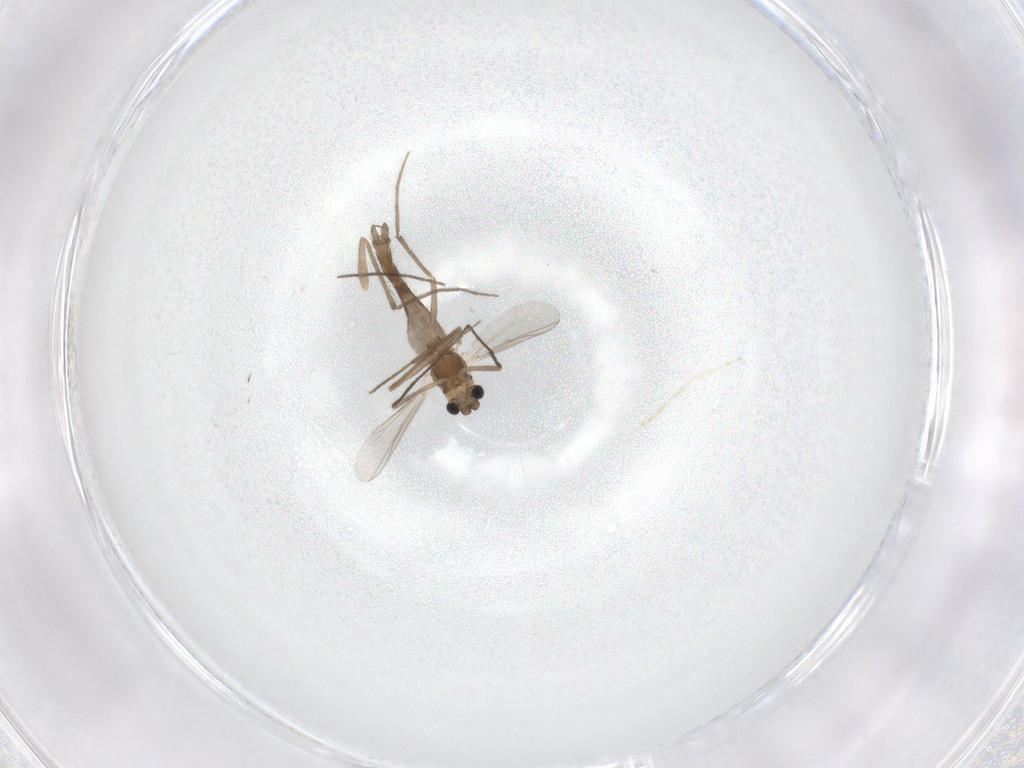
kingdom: Animalia
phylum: Arthropoda
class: Insecta
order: Diptera
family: Chironomidae
